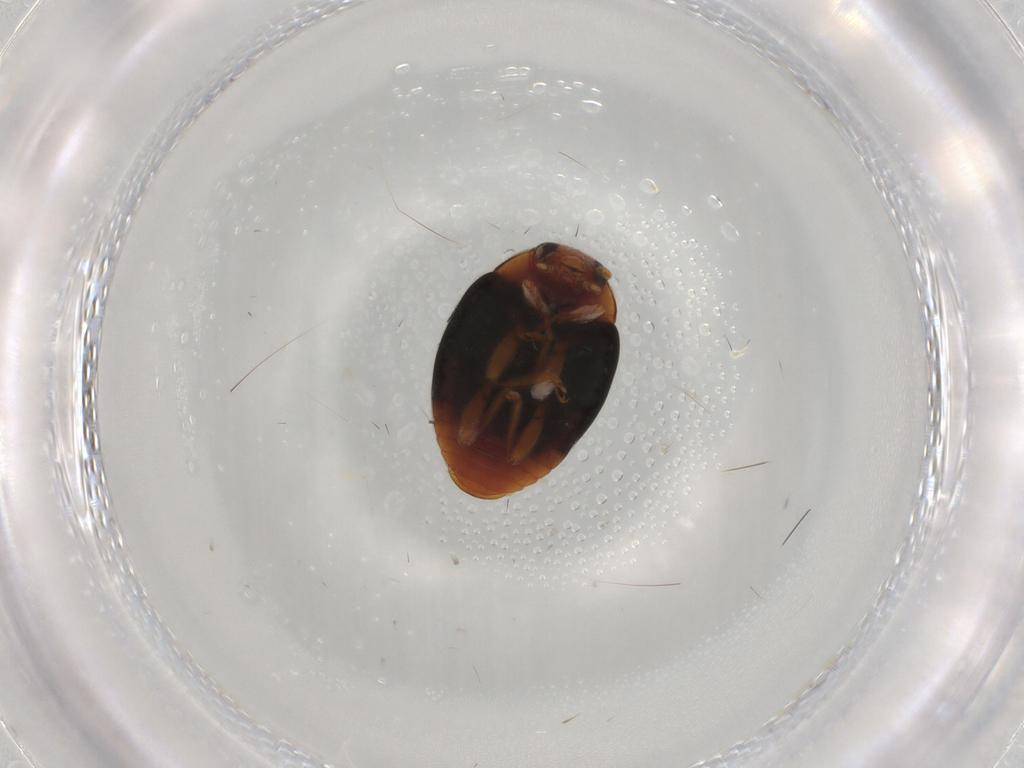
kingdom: Animalia
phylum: Arthropoda
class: Insecta
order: Coleoptera
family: Coccinellidae
